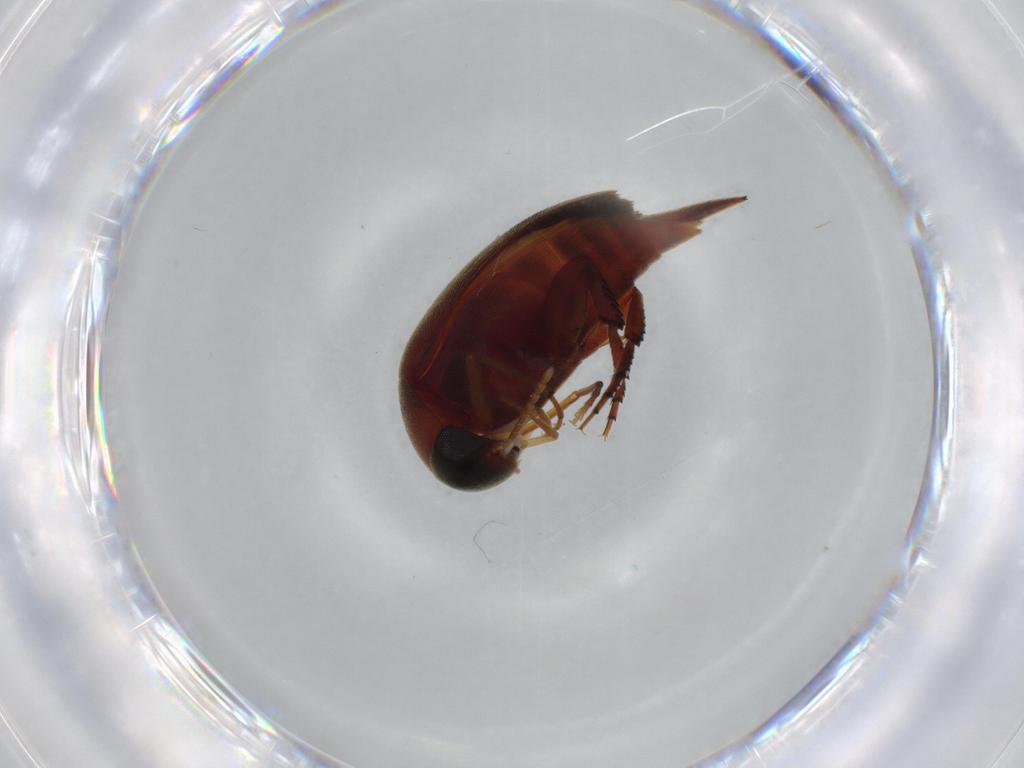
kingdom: Animalia
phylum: Arthropoda
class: Insecta
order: Coleoptera
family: Mordellidae
